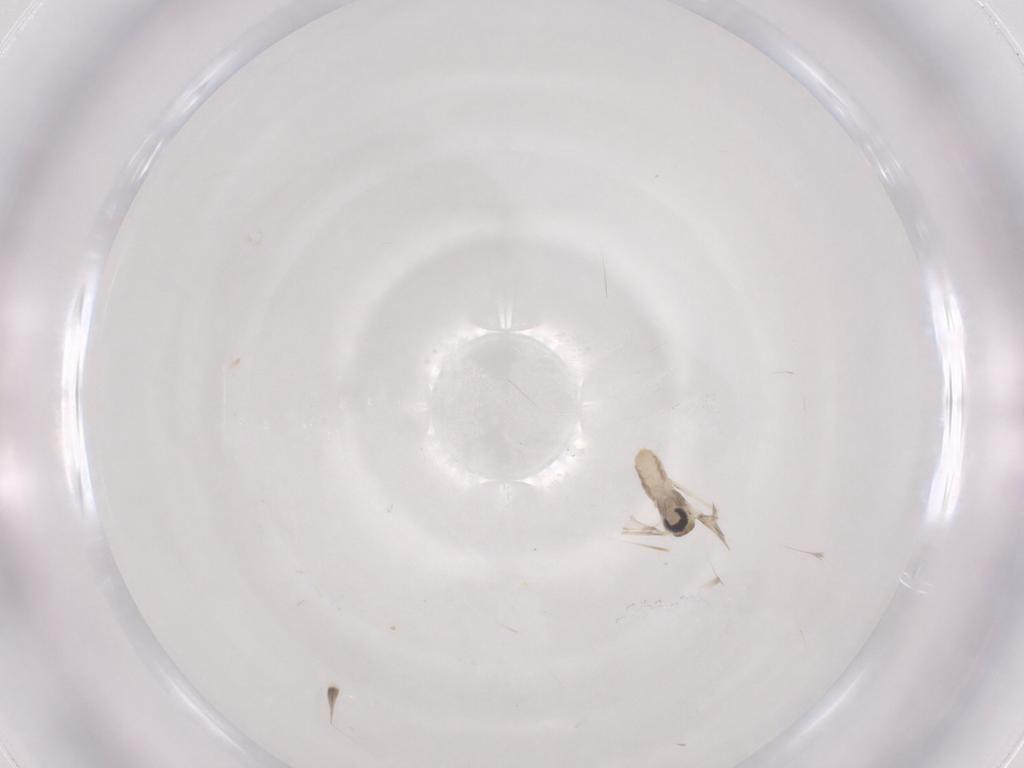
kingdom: Animalia
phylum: Arthropoda
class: Insecta
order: Diptera
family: Cecidomyiidae
